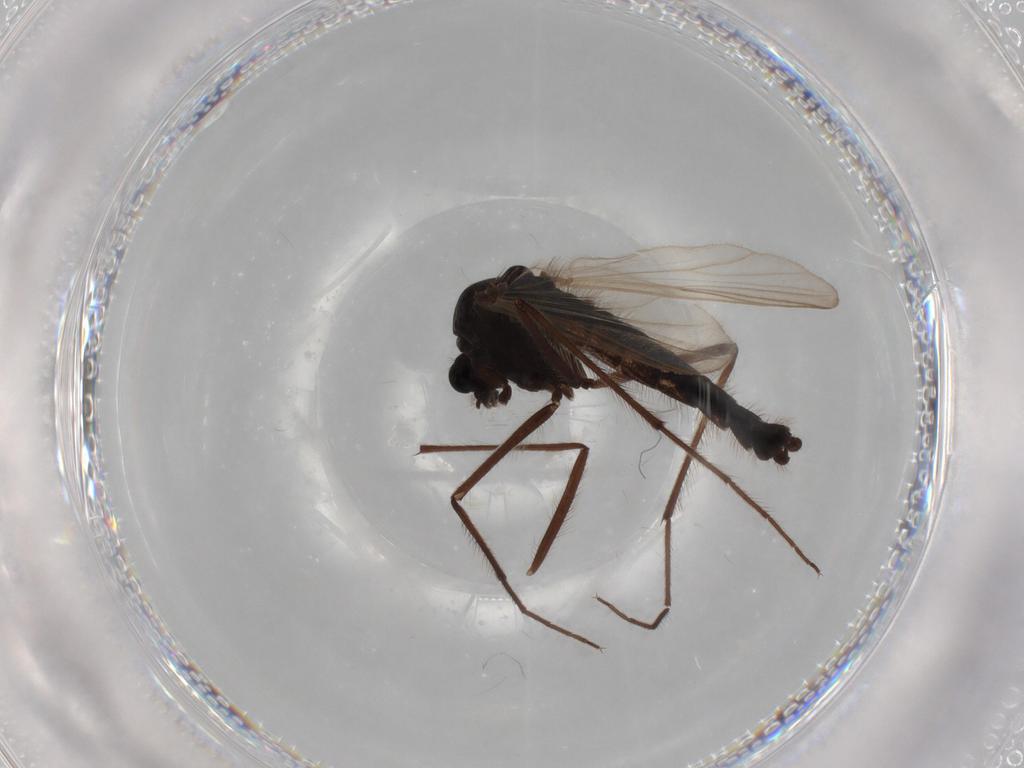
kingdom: Animalia
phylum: Arthropoda
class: Insecta
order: Diptera
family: Cecidomyiidae
